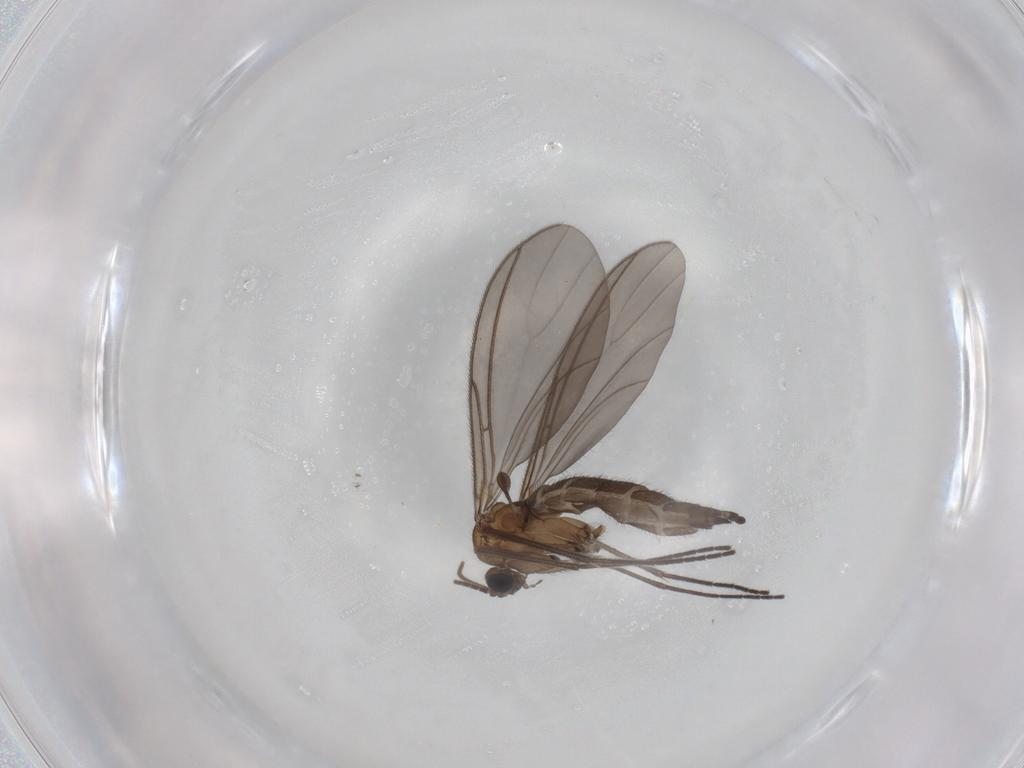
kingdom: Animalia
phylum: Arthropoda
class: Insecta
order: Diptera
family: Sciaridae
